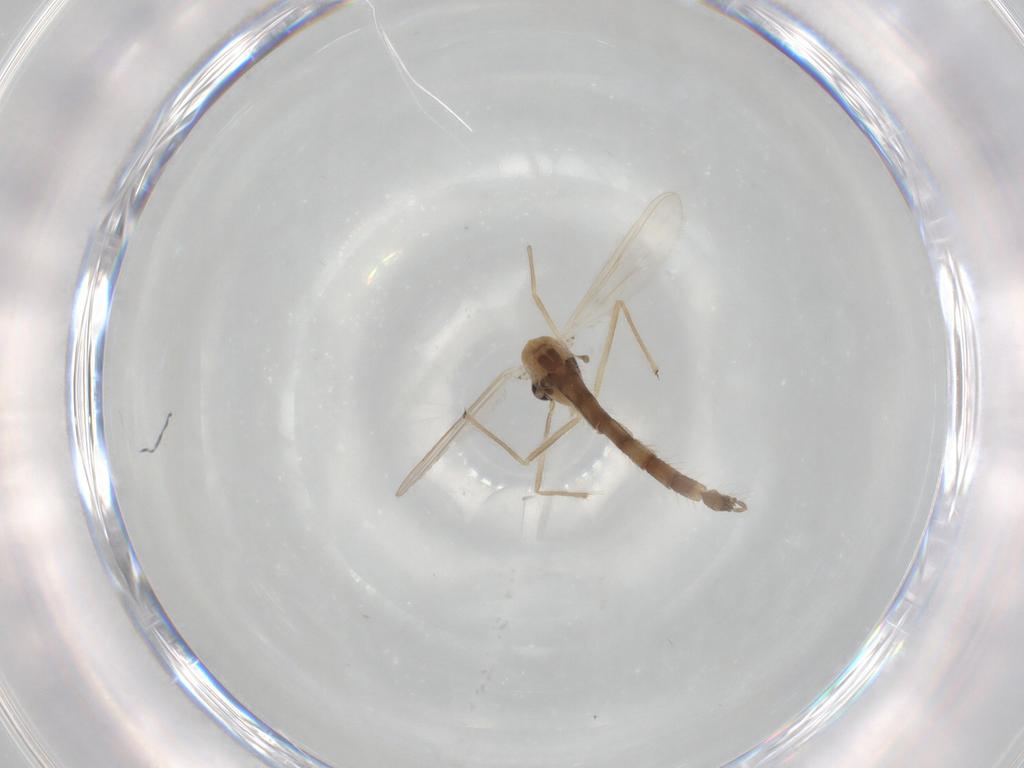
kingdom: Animalia
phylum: Arthropoda
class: Insecta
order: Diptera
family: Chironomidae
